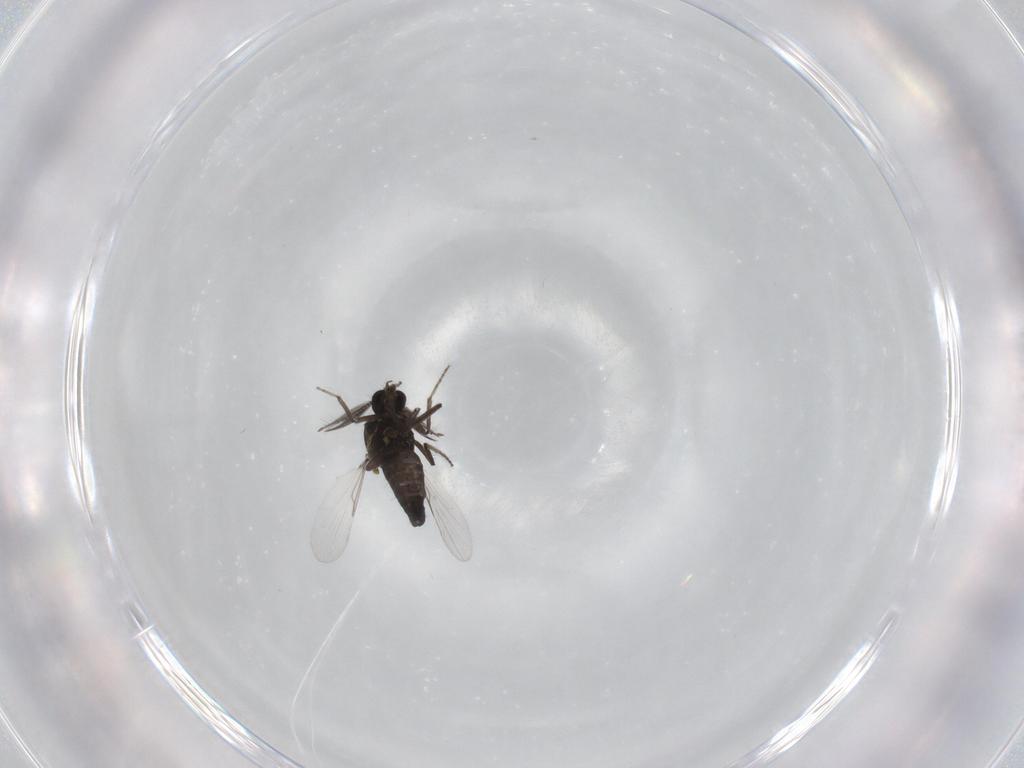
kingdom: Animalia
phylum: Arthropoda
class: Insecta
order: Diptera
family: Ceratopogonidae
